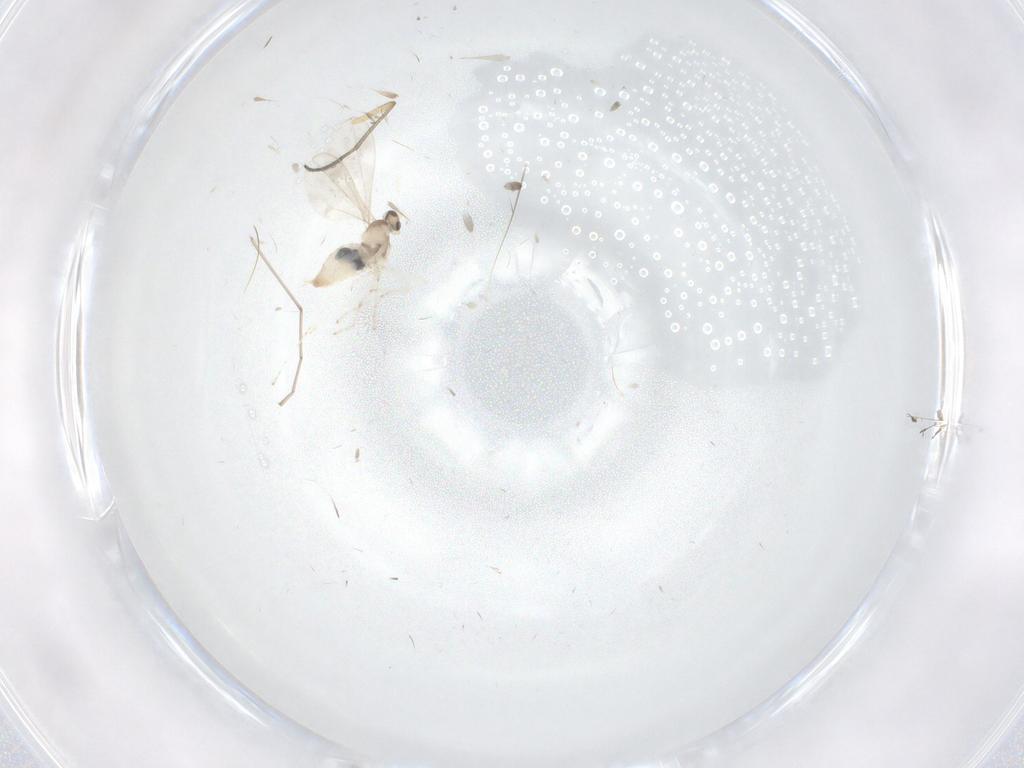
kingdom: Animalia
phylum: Arthropoda
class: Insecta
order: Diptera
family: Cecidomyiidae
